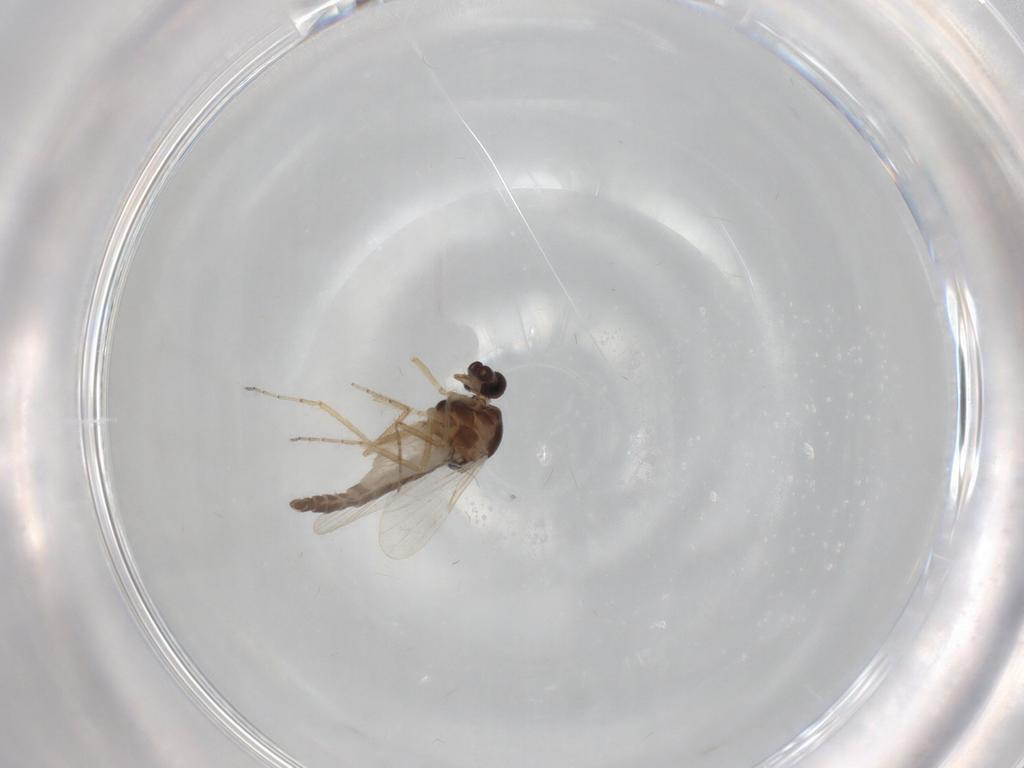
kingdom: Animalia
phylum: Arthropoda
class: Insecta
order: Diptera
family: Ceratopogonidae
